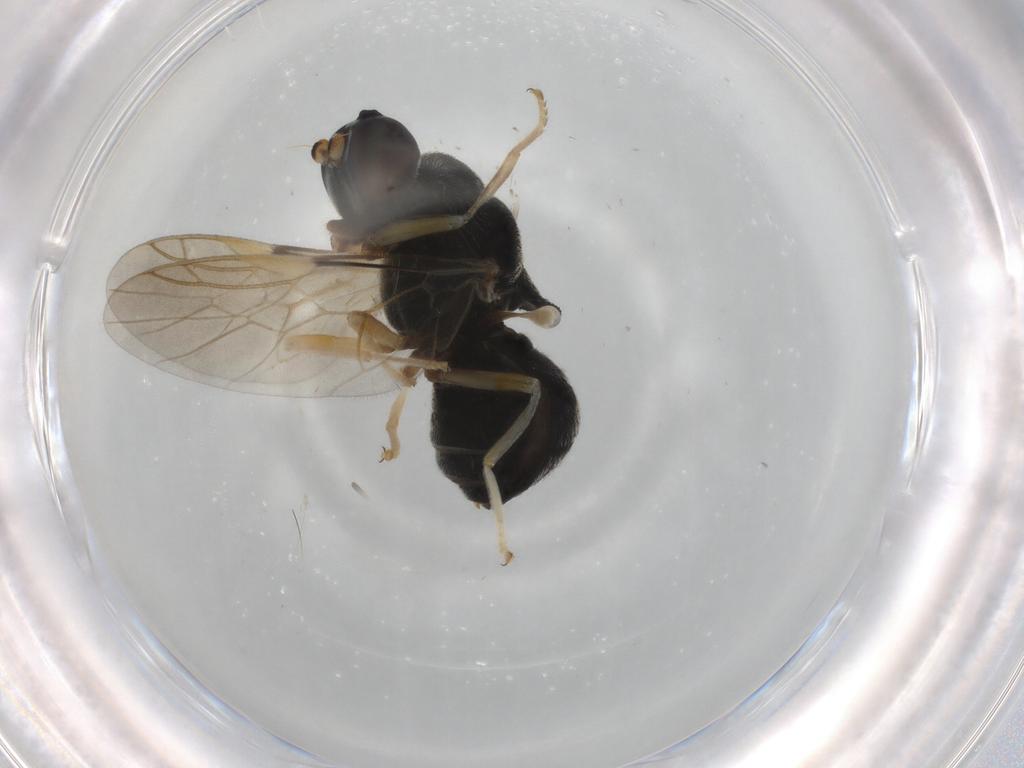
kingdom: Animalia
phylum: Arthropoda
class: Insecta
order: Diptera
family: Stratiomyidae
